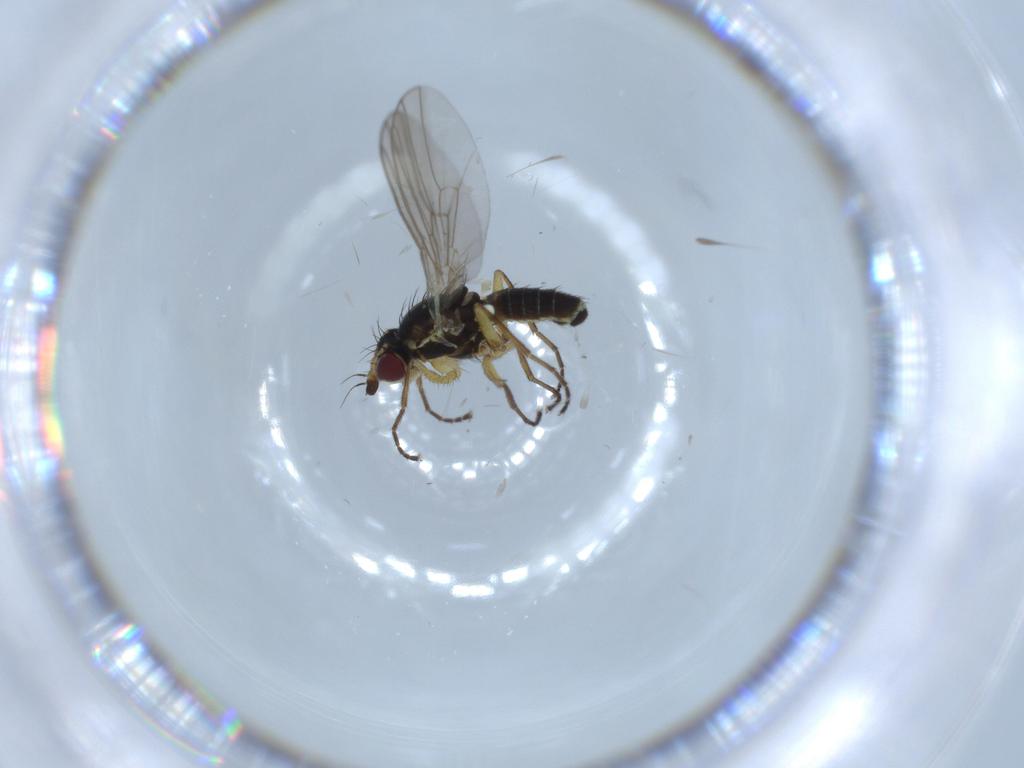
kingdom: Animalia
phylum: Arthropoda
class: Insecta
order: Diptera
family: Agromyzidae
